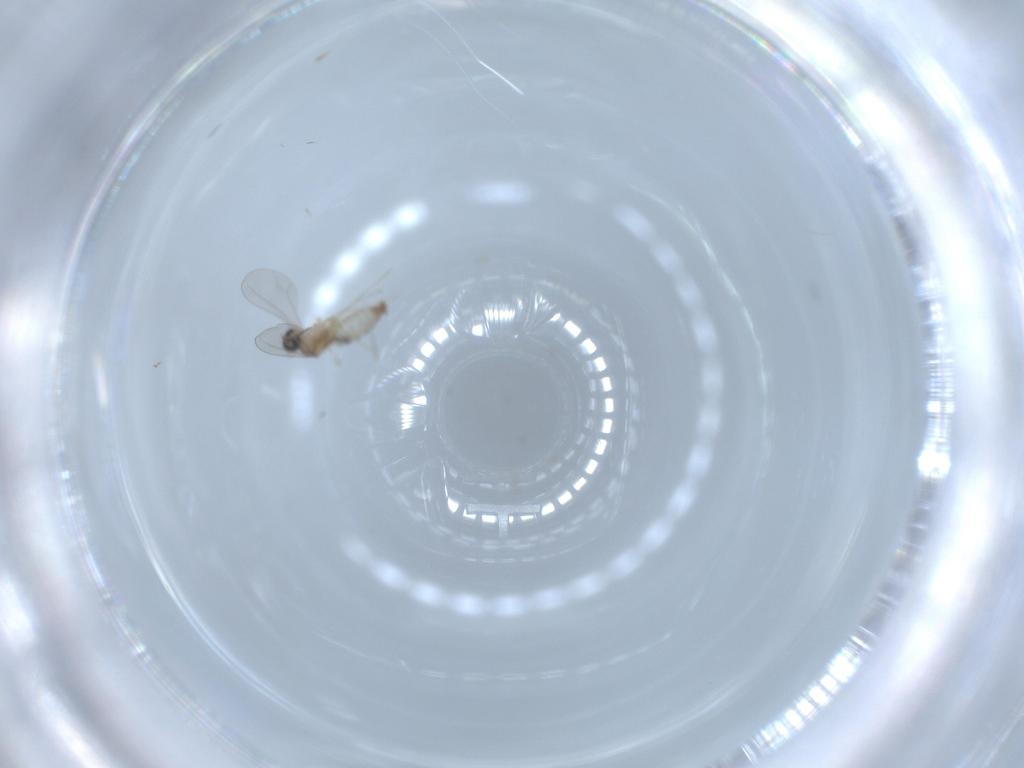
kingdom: Animalia
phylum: Arthropoda
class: Insecta
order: Diptera
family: Cecidomyiidae
